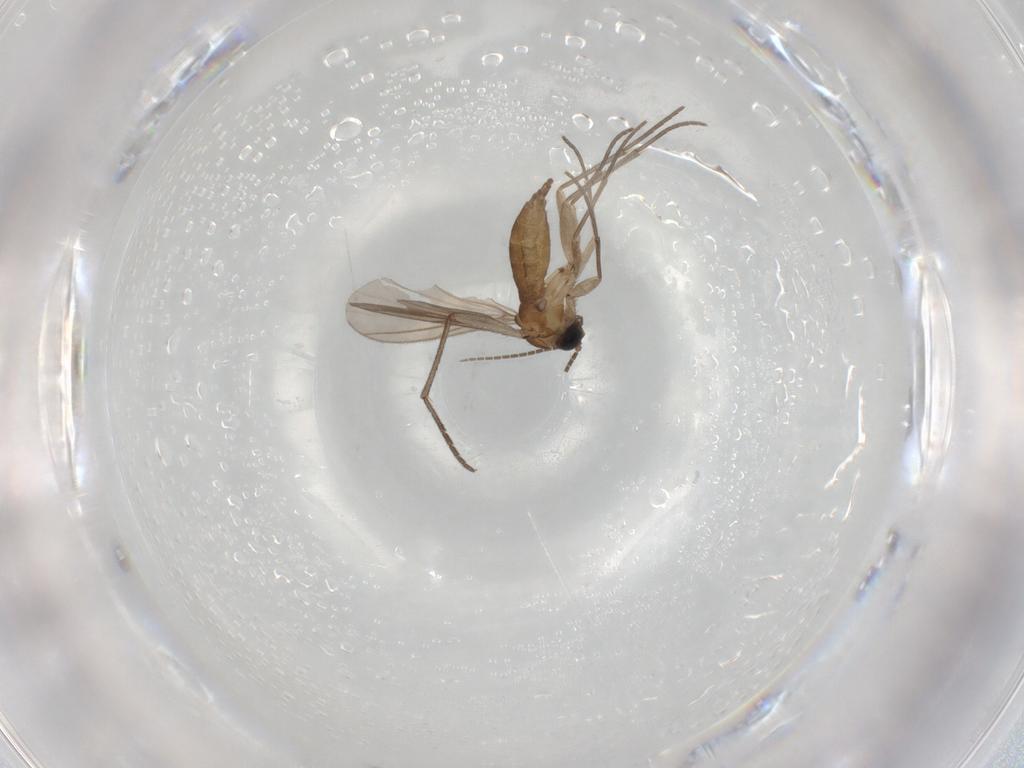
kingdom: Animalia
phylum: Arthropoda
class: Insecta
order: Diptera
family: Sciaridae
